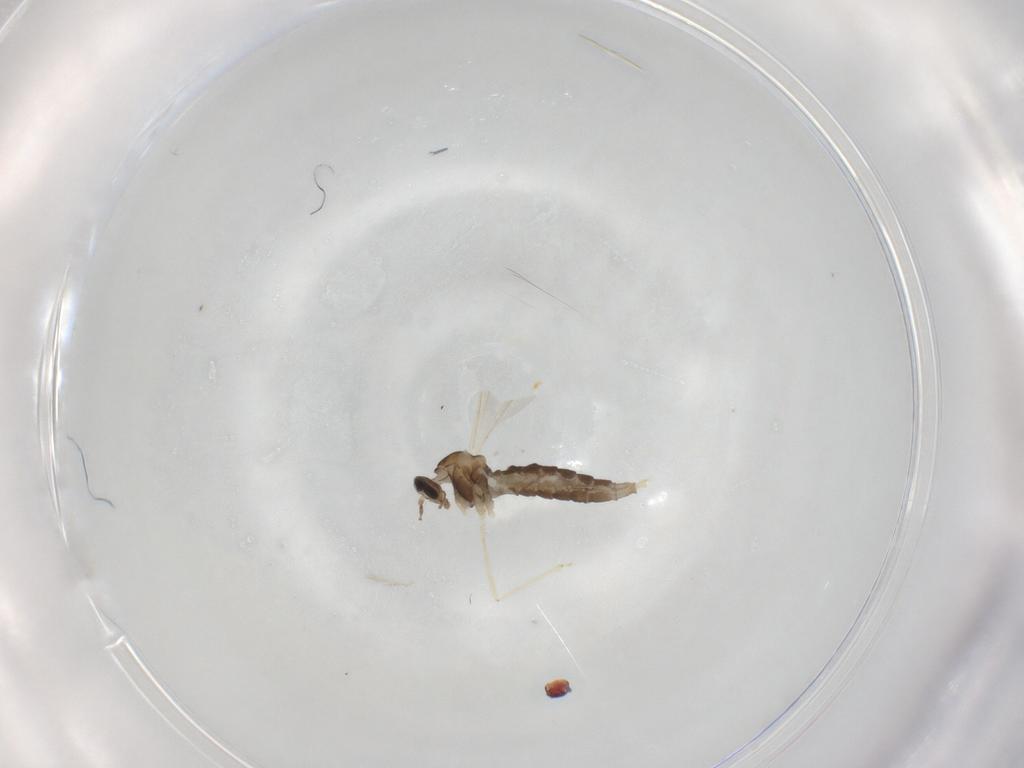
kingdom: Animalia
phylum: Arthropoda
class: Insecta
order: Diptera
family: Cecidomyiidae
